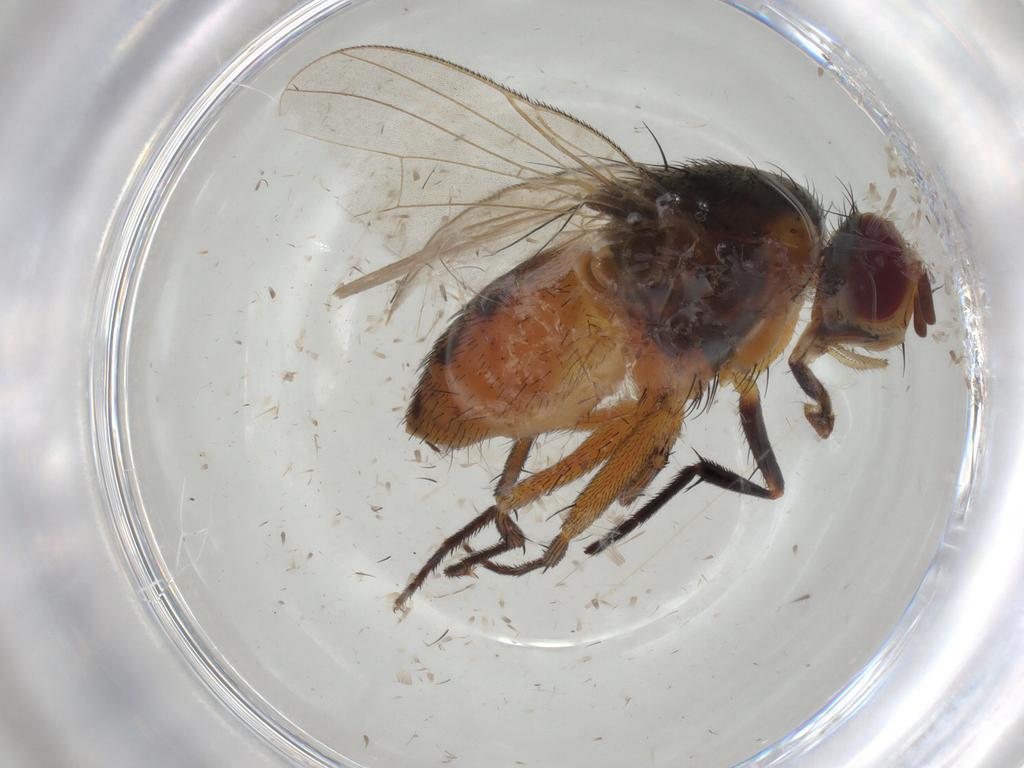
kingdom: Animalia
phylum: Arthropoda
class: Insecta
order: Diptera
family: Muscidae
